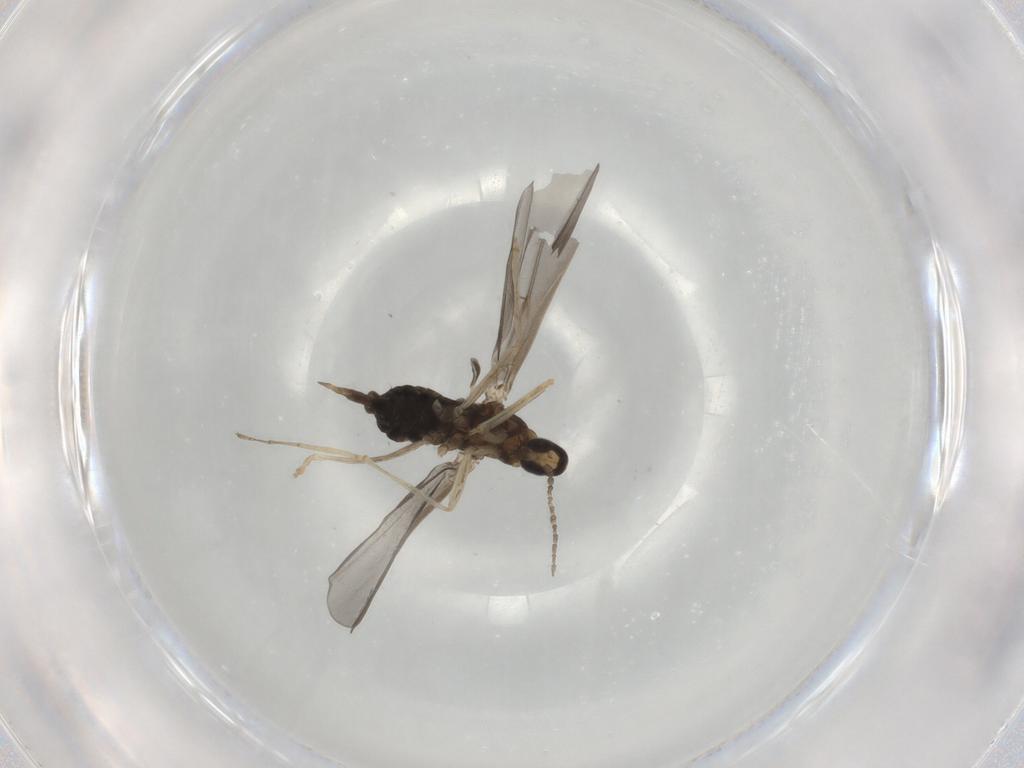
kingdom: Animalia
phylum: Arthropoda
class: Insecta
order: Diptera
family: Cecidomyiidae
